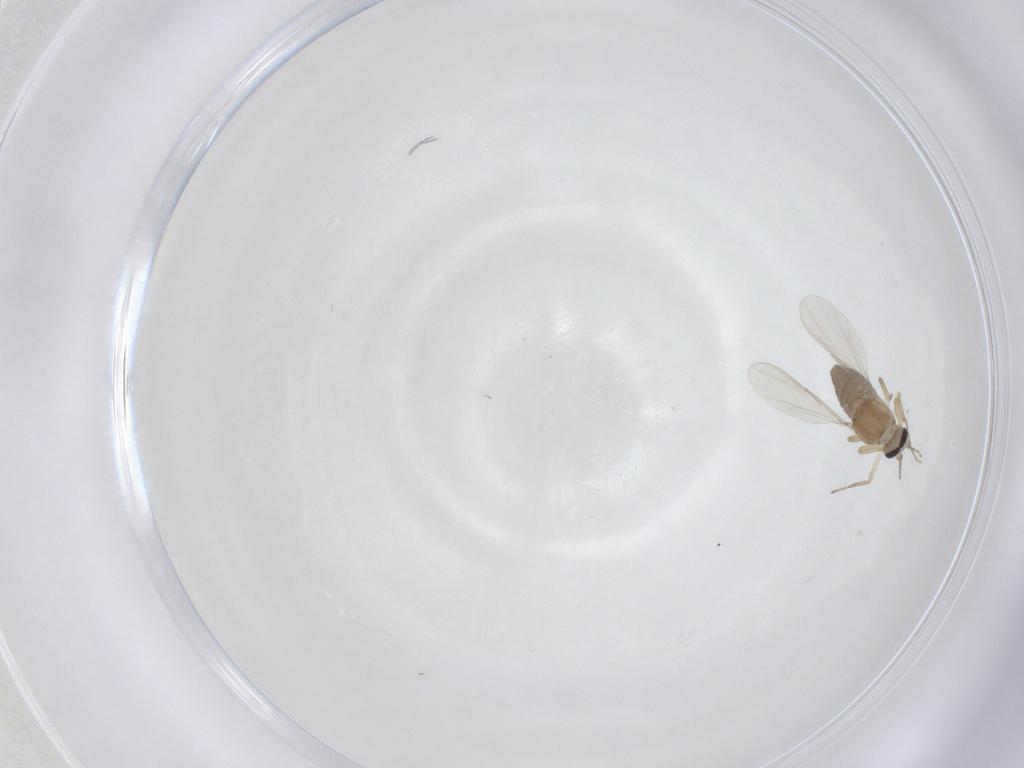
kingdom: Animalia
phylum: Arthropoda
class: Insecta
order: Diptera
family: Ceratopogonidae
